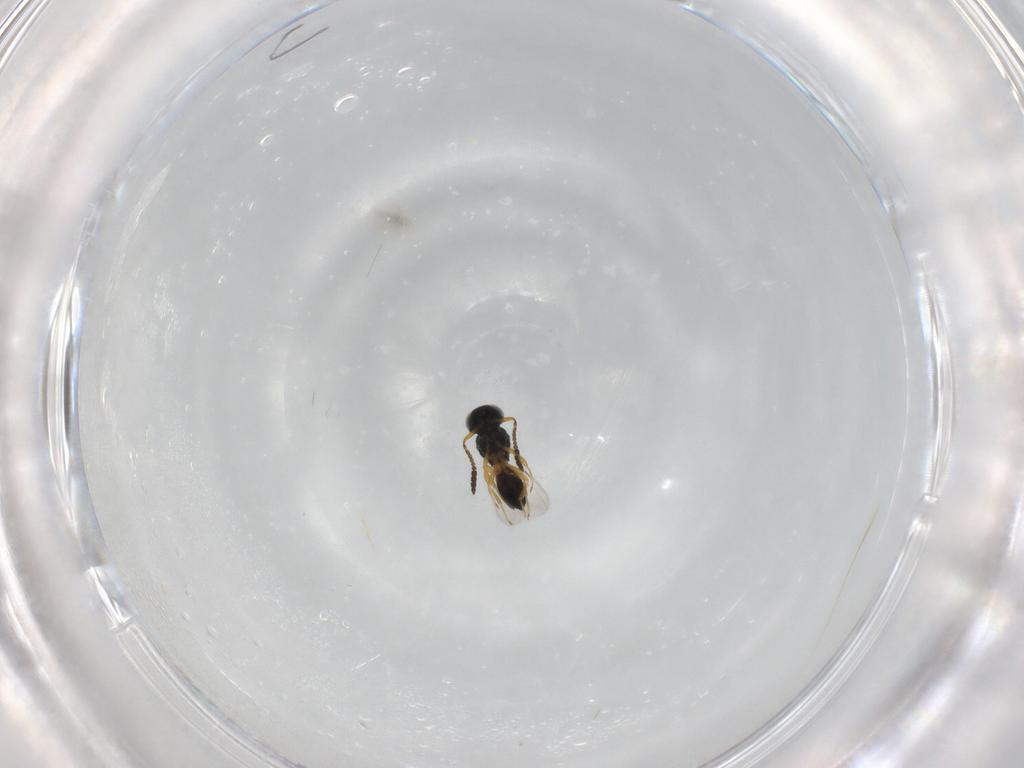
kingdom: Animalia
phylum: Arthropoda
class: Insecta
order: Hymenoptera
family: Scelionidae
